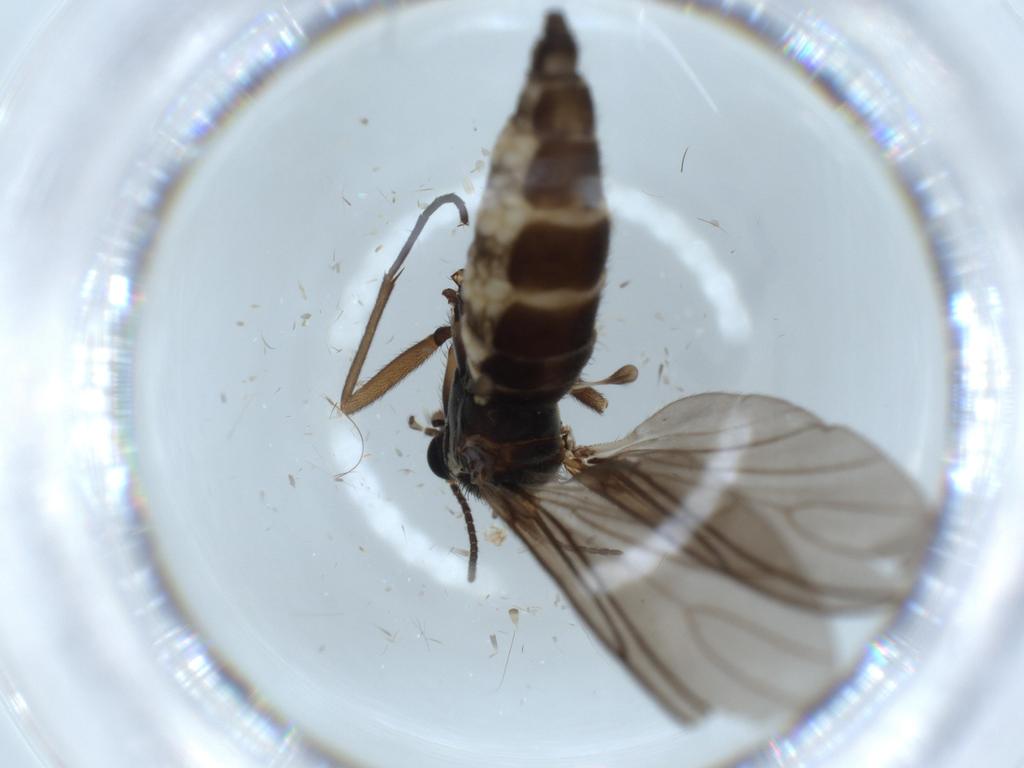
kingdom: Animalia
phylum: Arthropoda
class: Insecta
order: Diptera
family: Sciaridae
